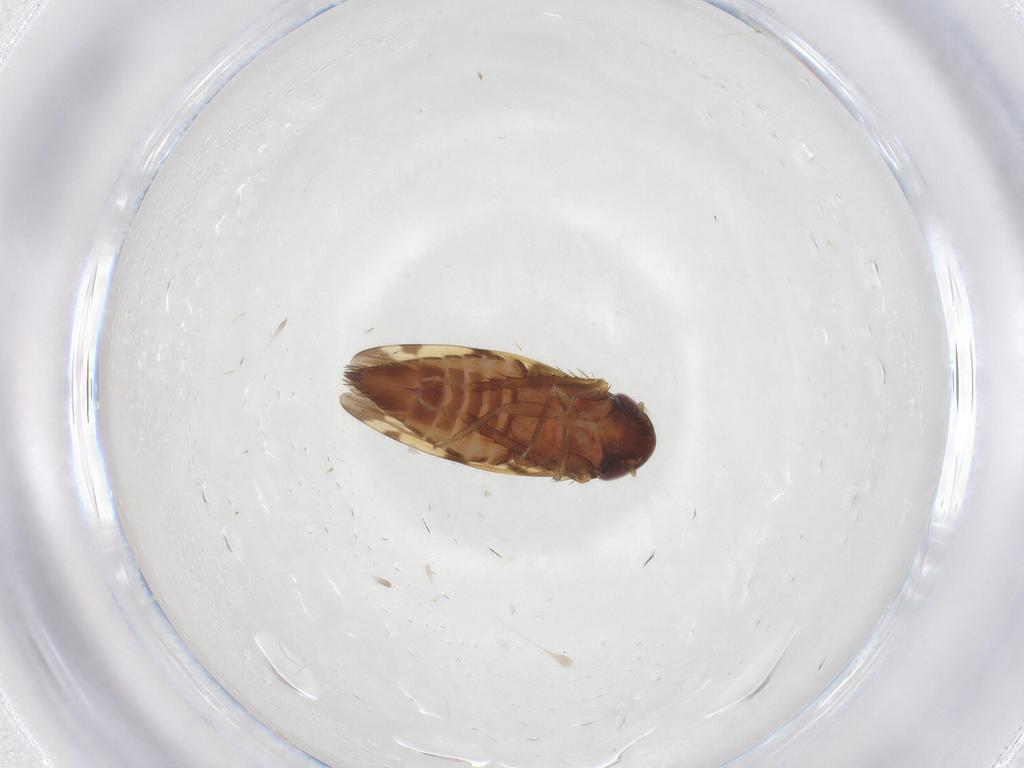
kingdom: Animalia
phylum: Arthropoda
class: Insecta
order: Hemiptera
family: Cicadellidae
